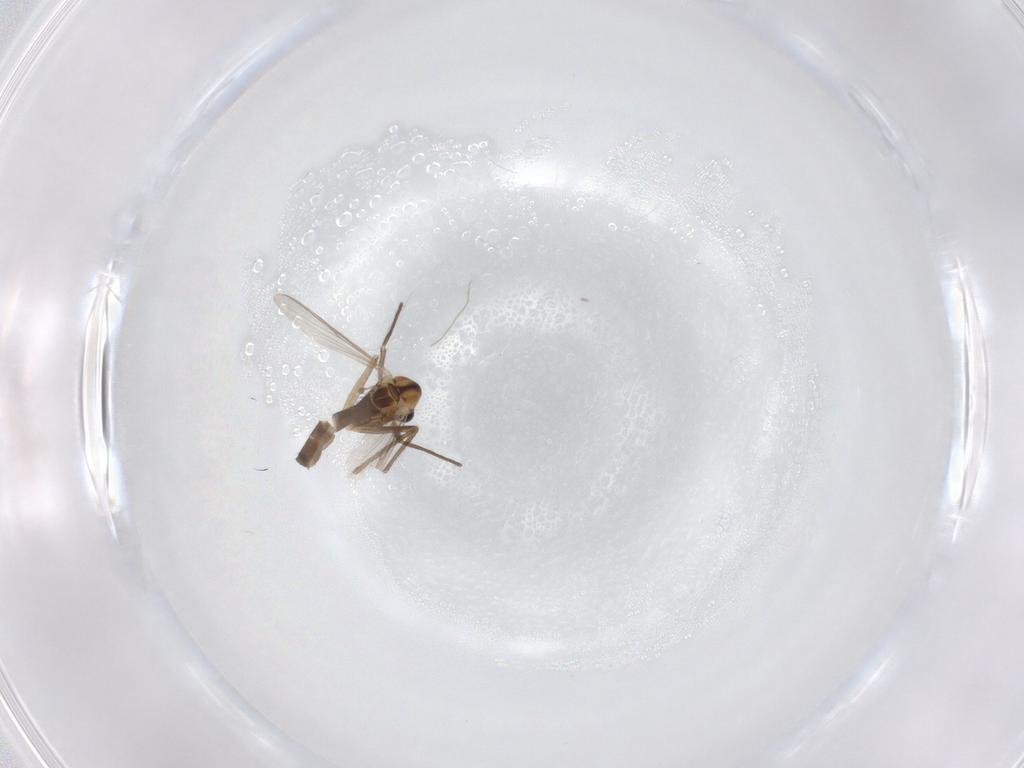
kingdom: Animalia
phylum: Arthropoda
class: Insecta
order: Diptera
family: Chironomidae
